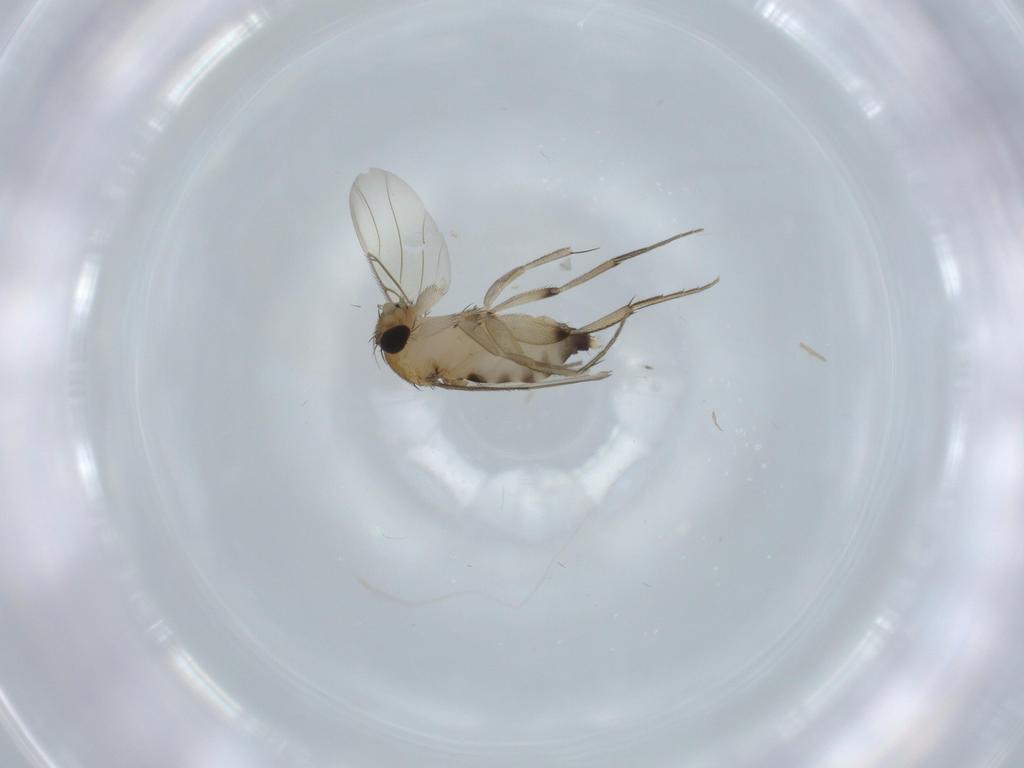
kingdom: Animalia
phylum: Arthropoda
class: Insecta
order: Diptera
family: Phoridae
